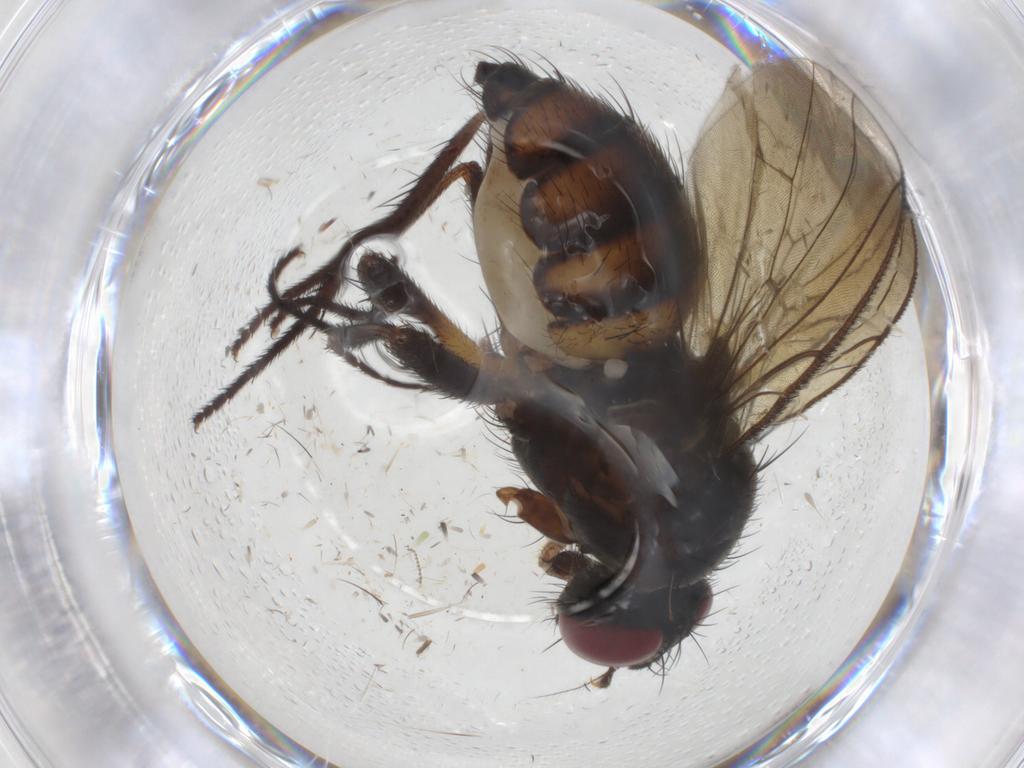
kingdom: Animalia
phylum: Arthropoda
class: Insecta
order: Diptera
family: Anthomyiidae
